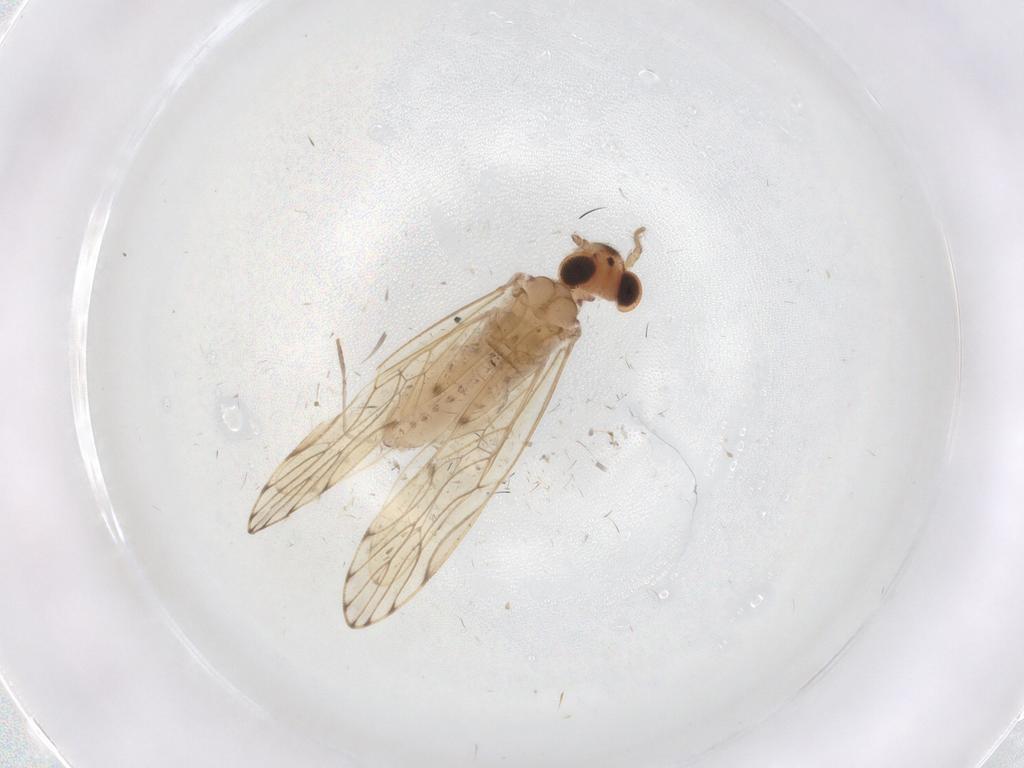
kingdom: Animalia
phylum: Arthropoda
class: Insecta
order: Psocodea
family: Epipsocidae
